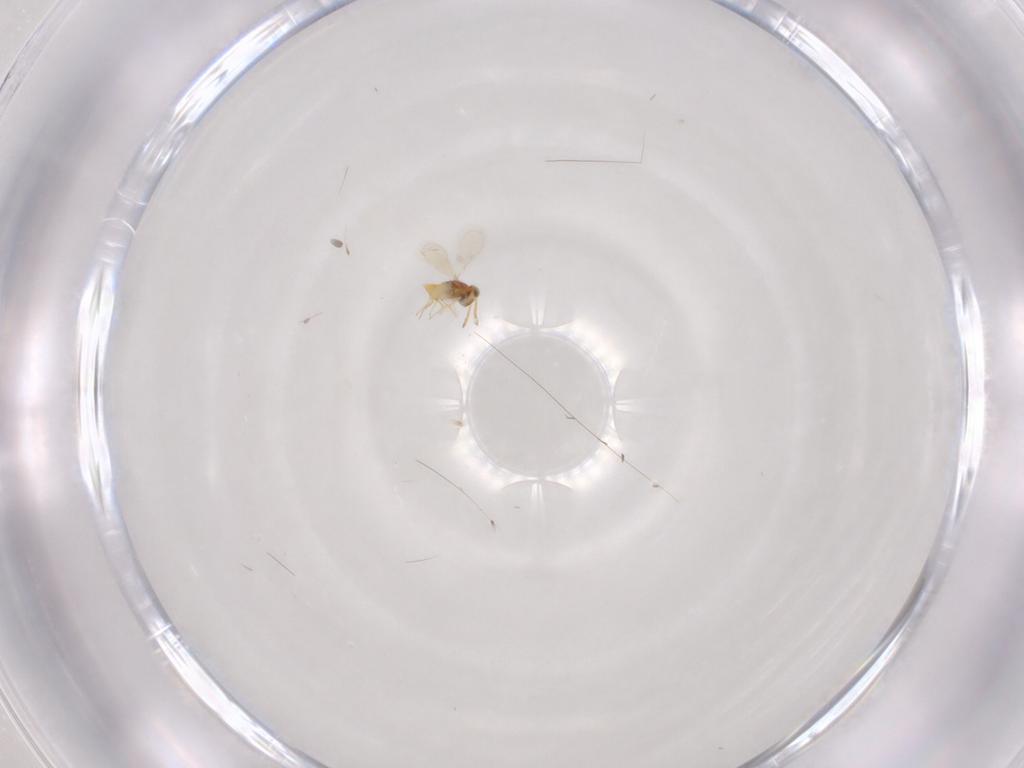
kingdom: Animalia
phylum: Arthropoda
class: Insecta
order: Hymenoptera
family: Aphelinidae
